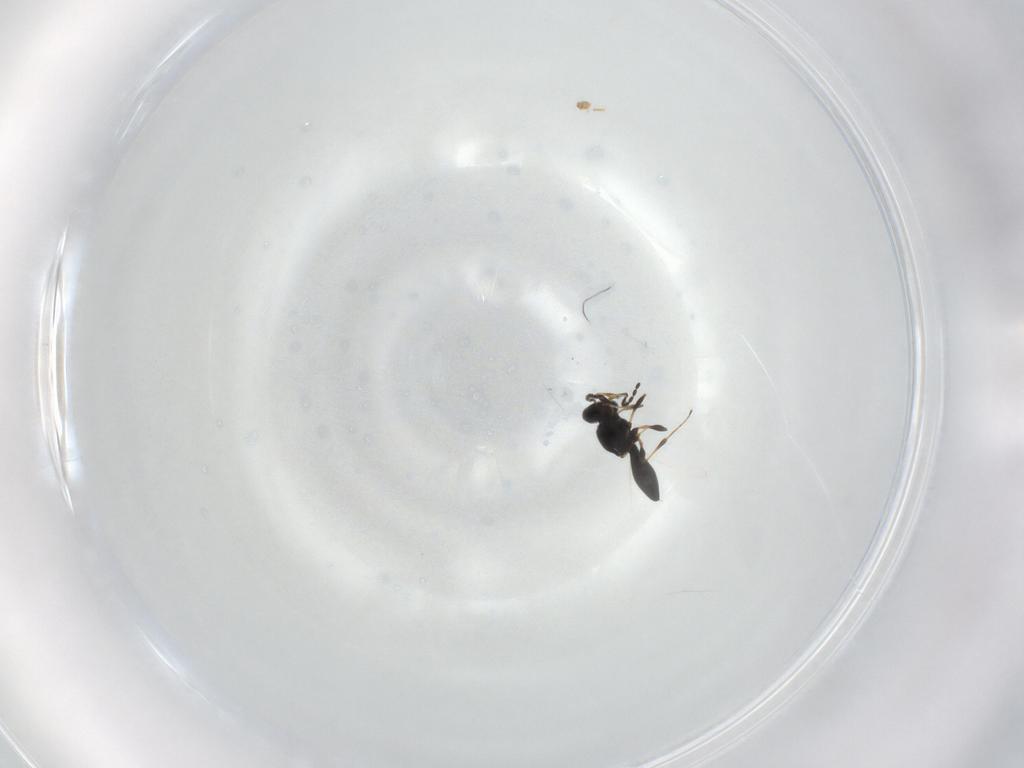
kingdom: Animalia
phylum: Arthropoda
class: Insecta
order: Hymenoptera
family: Platygastridae
